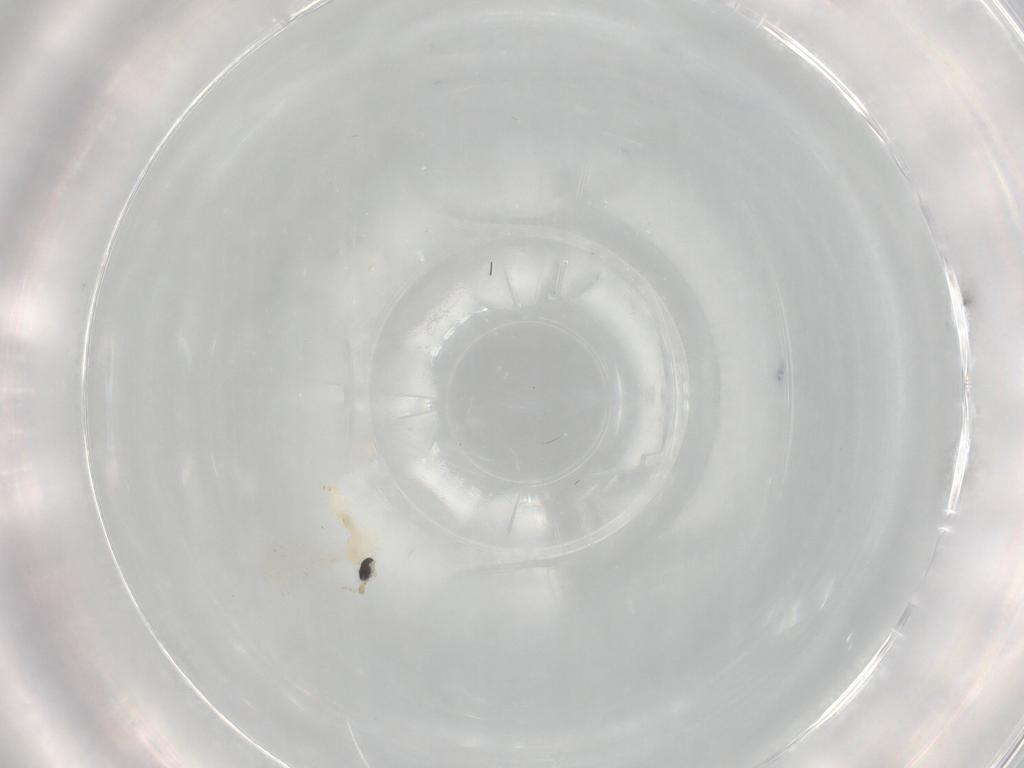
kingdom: Animalia
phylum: Arthropoda
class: Insecta
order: Diptera
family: Cecidomyiidae
